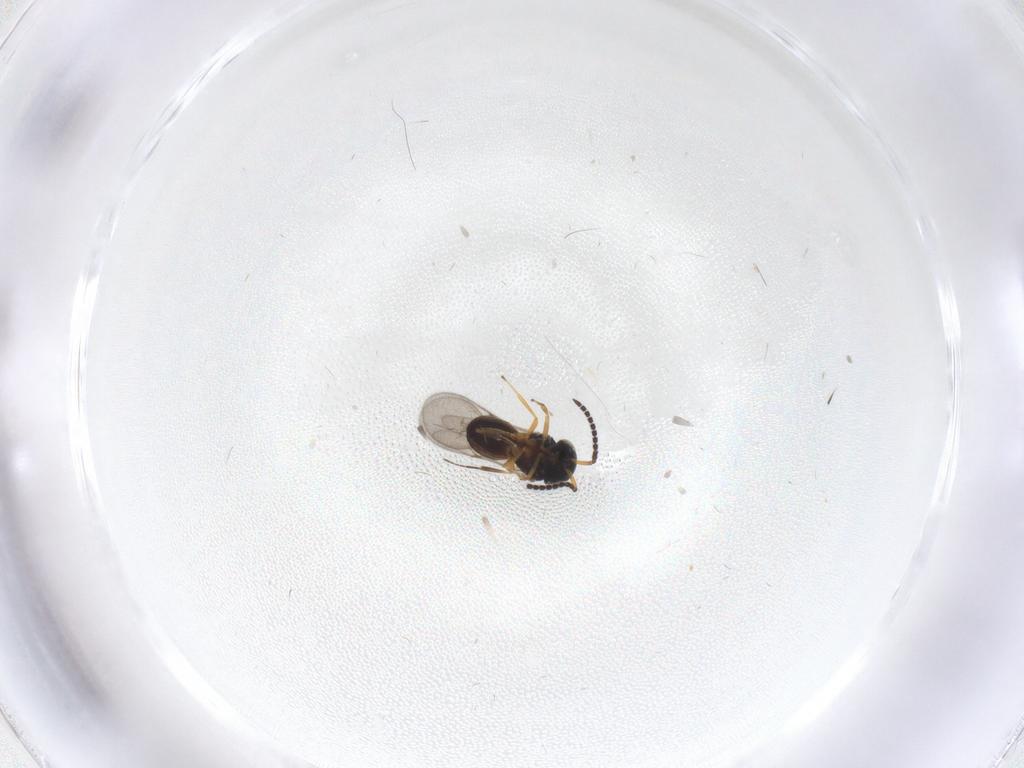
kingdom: Animalia
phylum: Arthropoda
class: Insecta
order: Hymenoptera
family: Scelionidae
